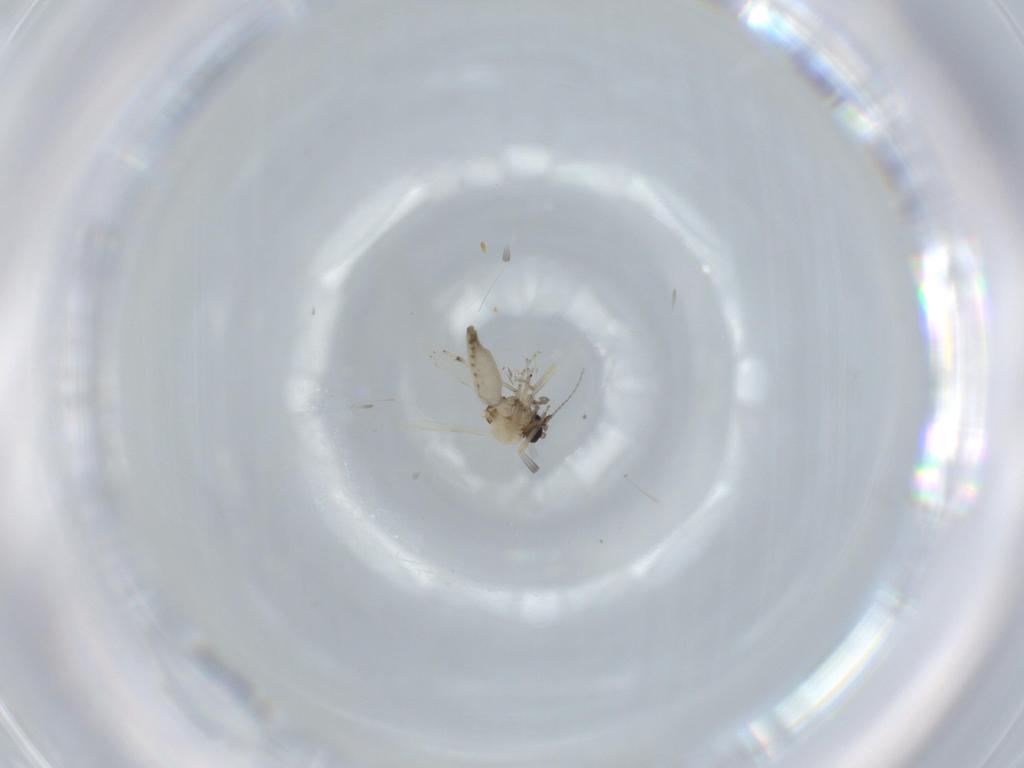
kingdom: Animalia
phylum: Arthropoda
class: Insecta
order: Diptera
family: Ceratopogonidae
